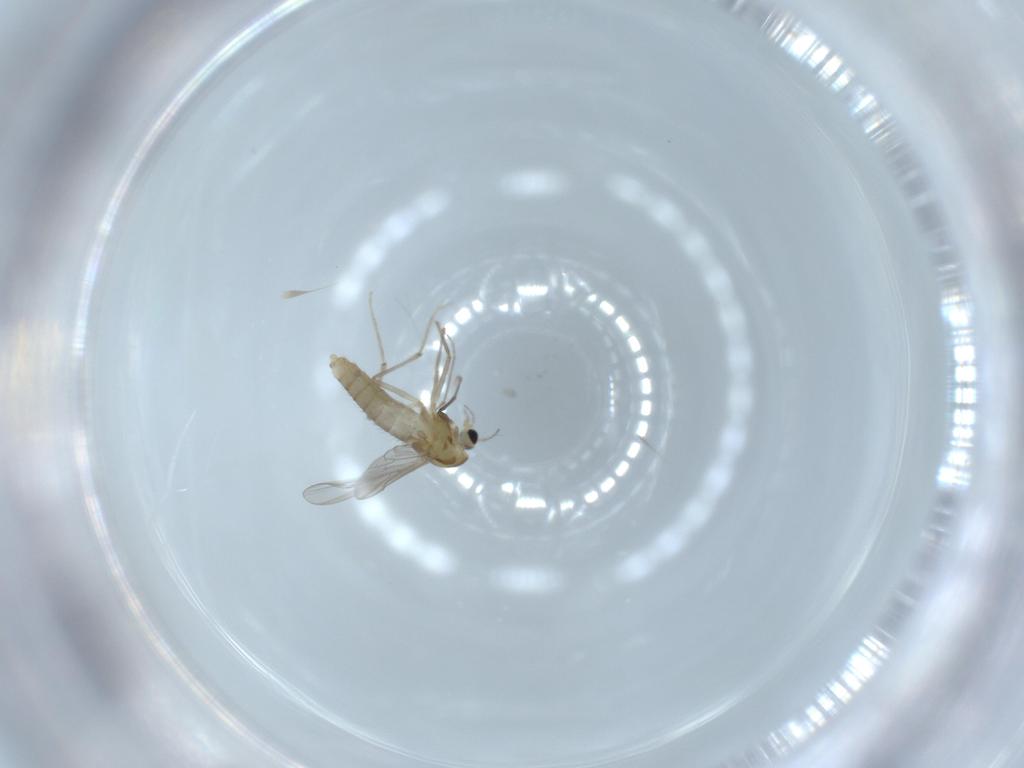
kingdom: Animalia
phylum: Arthropoda
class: Insecta
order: Diptera
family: Chironomidae
